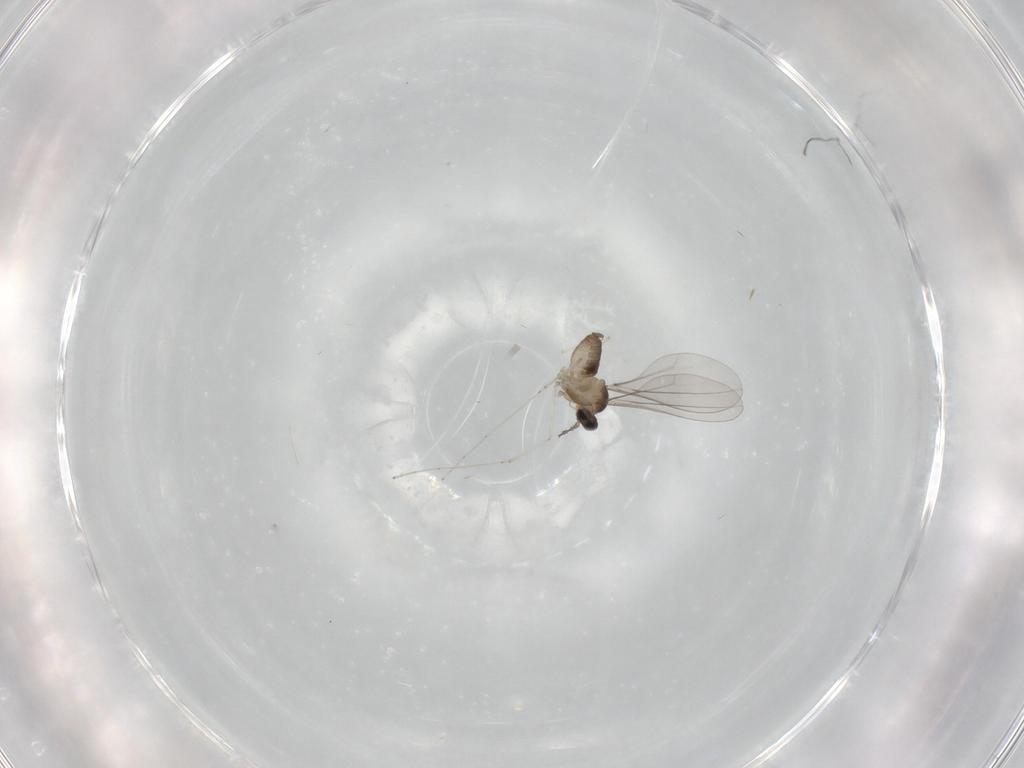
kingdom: Animalia
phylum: Arthropoda
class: Insecta
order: Diptera
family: Cecidomyiidae
